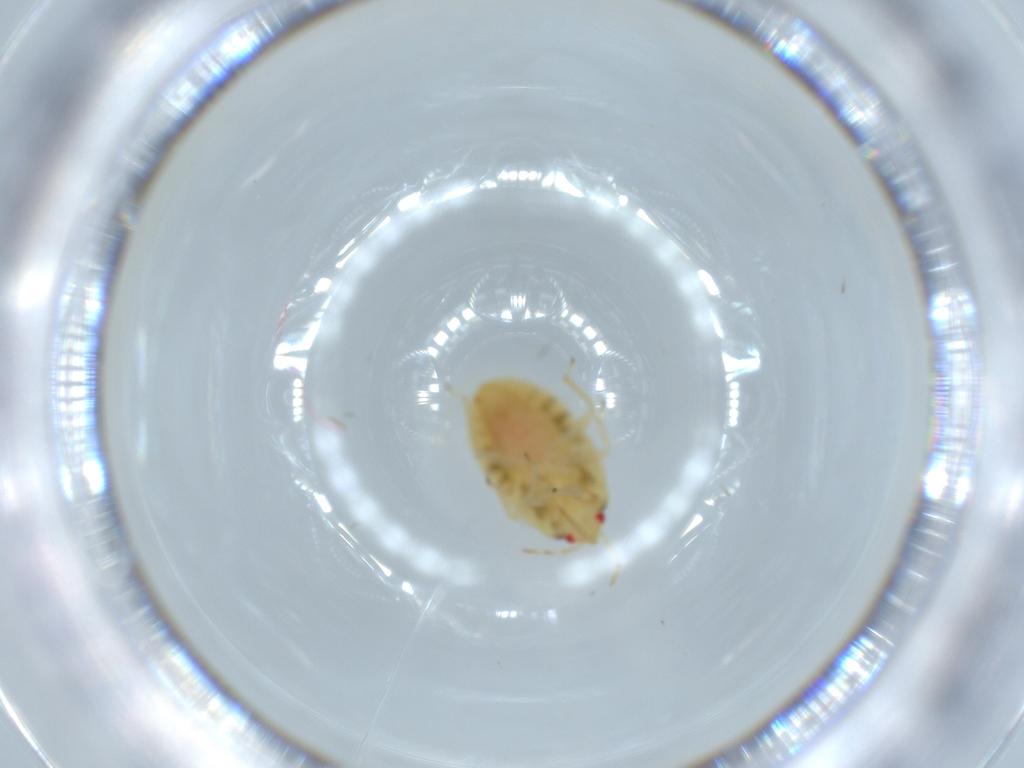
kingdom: Animalia
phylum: Arthropoda
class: Insecta
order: Hemiptera
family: Anthocoridae
